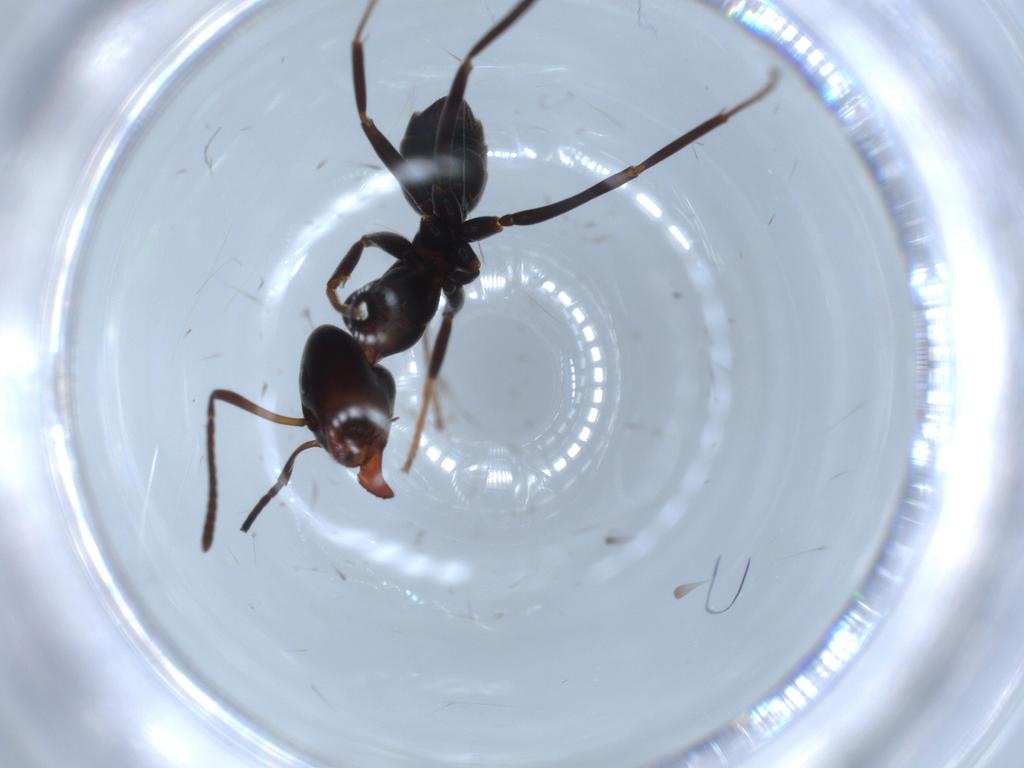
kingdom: Animalia
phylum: Arthropoda
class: Insecta
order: Hymenoptera
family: Formicidae
